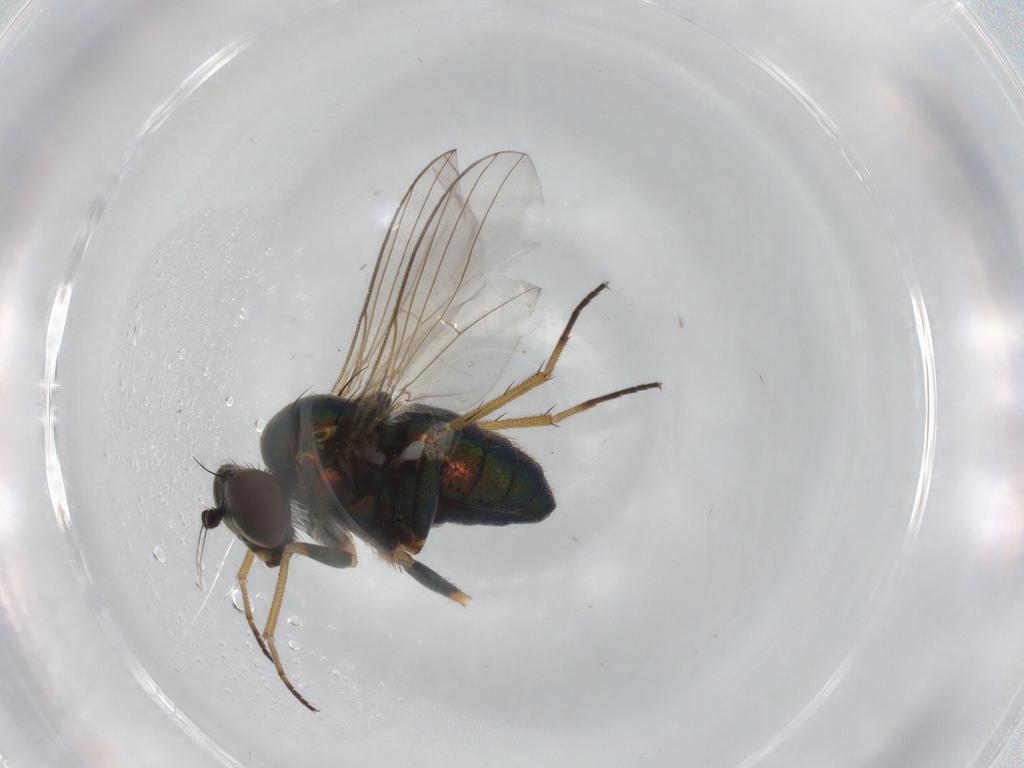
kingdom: Animalia
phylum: Arthropoda
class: Insecta
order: Diptera
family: Ceratopogonidae
